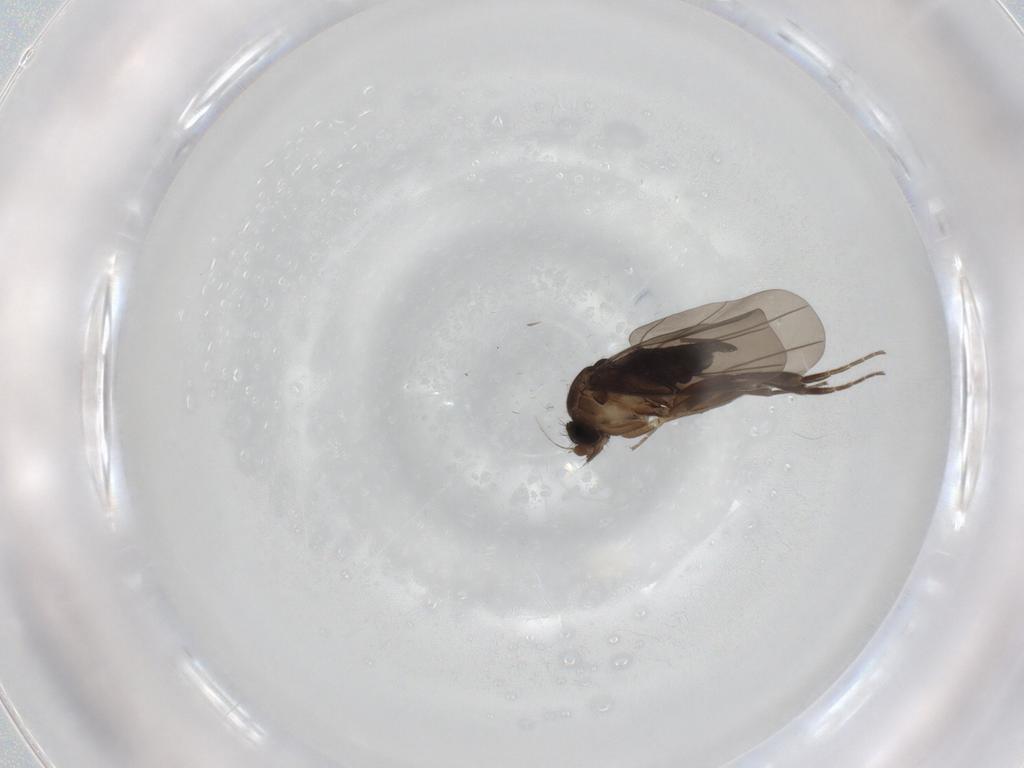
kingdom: Animalia
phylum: Arthropoda
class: Insecta
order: Diptera
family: Phoridae
